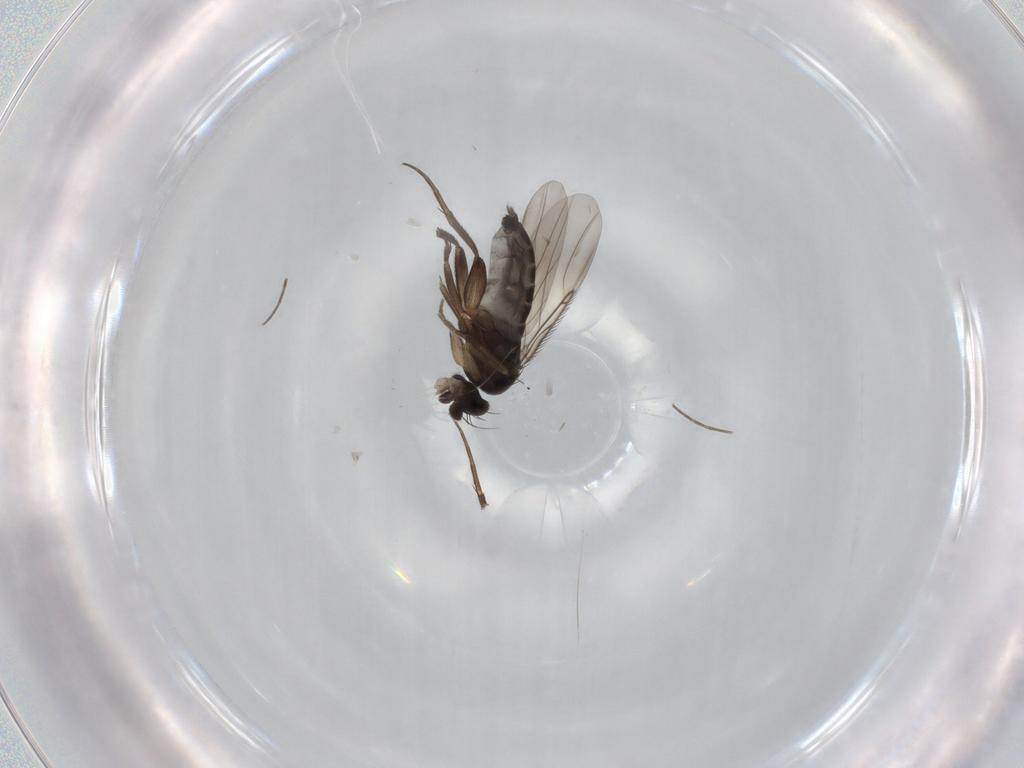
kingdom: Animalia
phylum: Arthropoda
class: Insecta
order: Diptera
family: Phoridae
